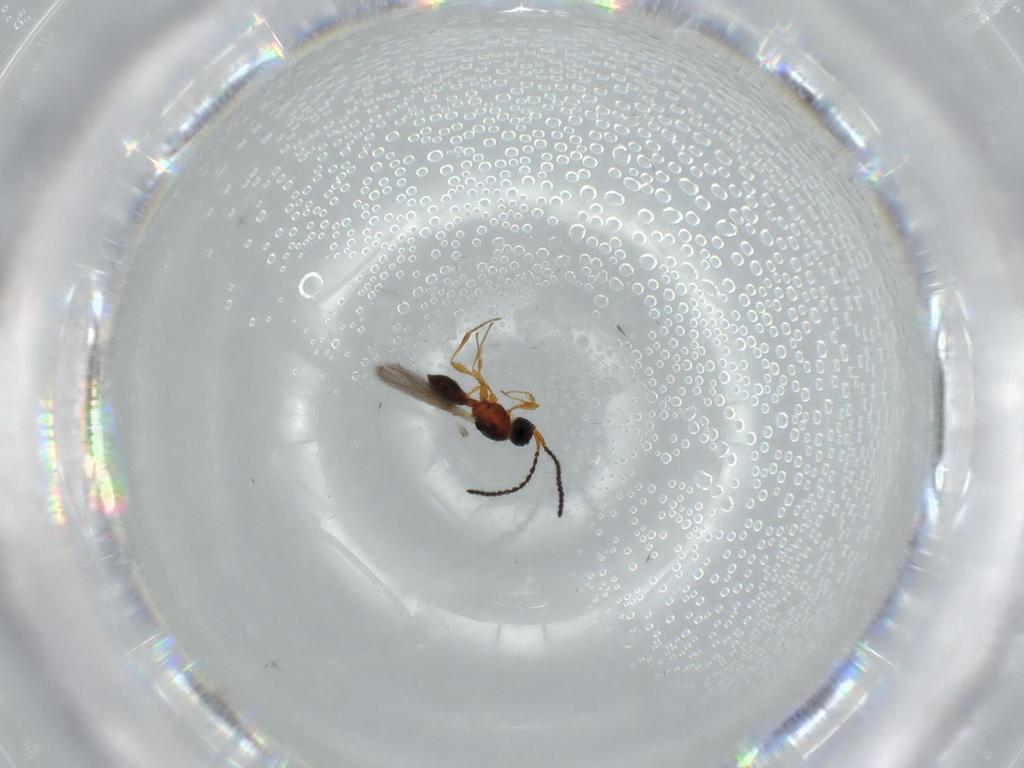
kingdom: Animalia
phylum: Arthropoda
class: Insecta
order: Hymenoptera
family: Diapriidae
